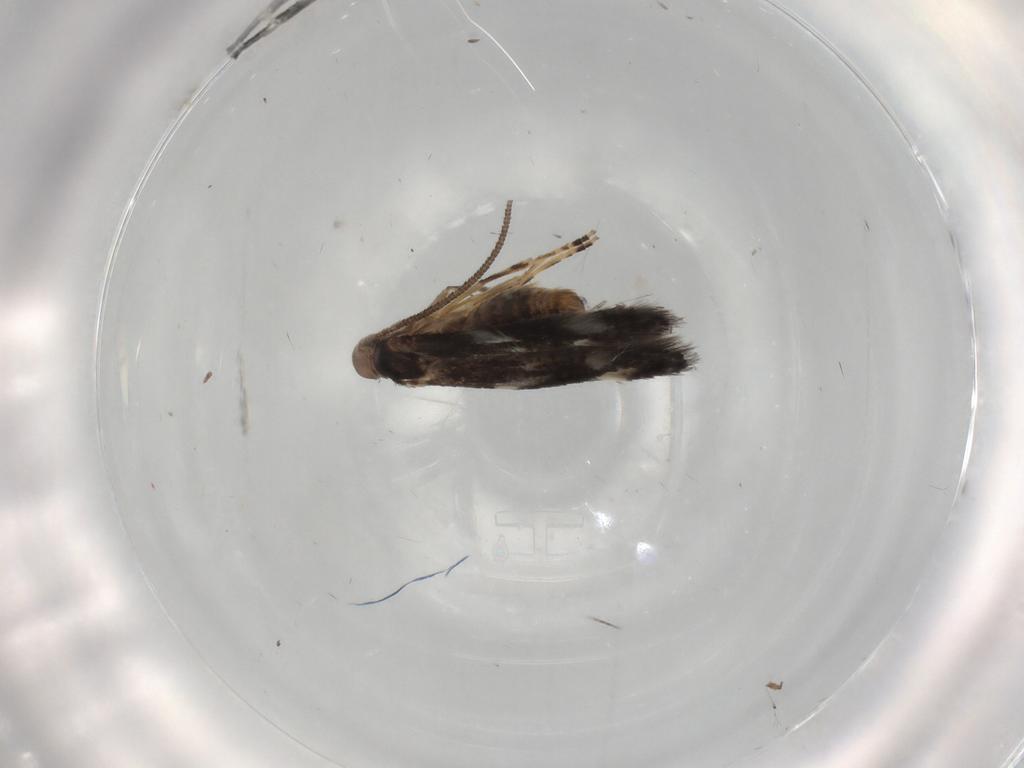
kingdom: Animalia
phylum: Arthropoda
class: Insecta
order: Lepidoptera
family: Elachistidae
